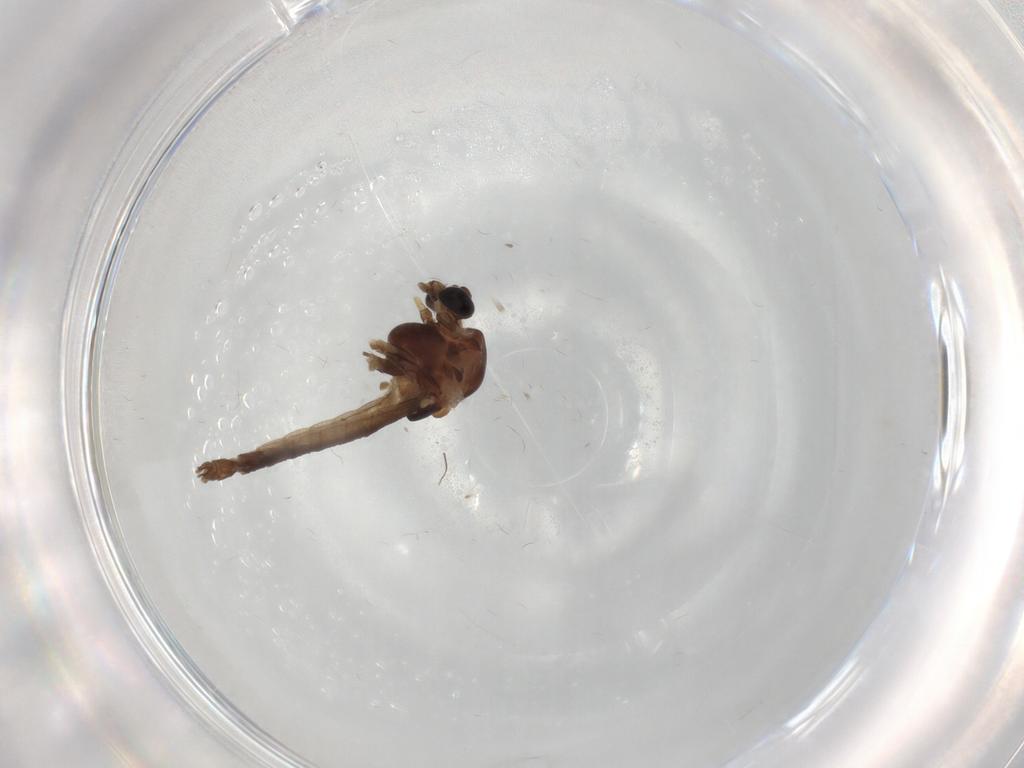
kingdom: Animalia
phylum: Arthropoda
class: Insecta
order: Diptera
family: Chironomidae
